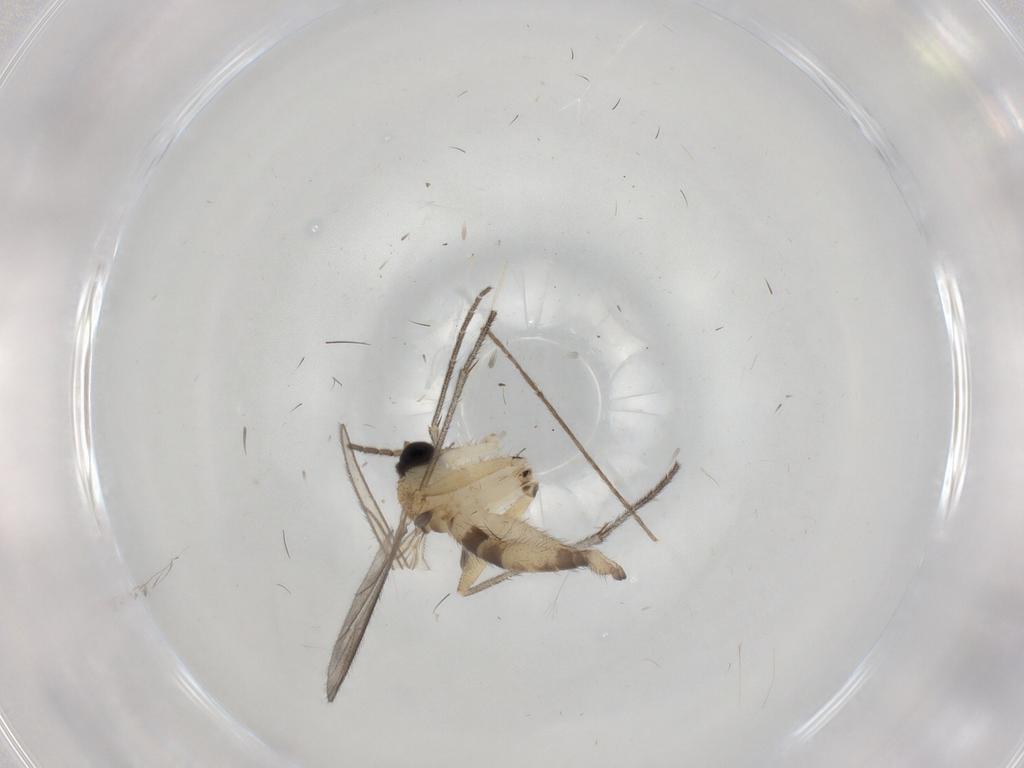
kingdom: Animalia
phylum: Arthropoda
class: Insecta
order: Diptera
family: Sciaridae
